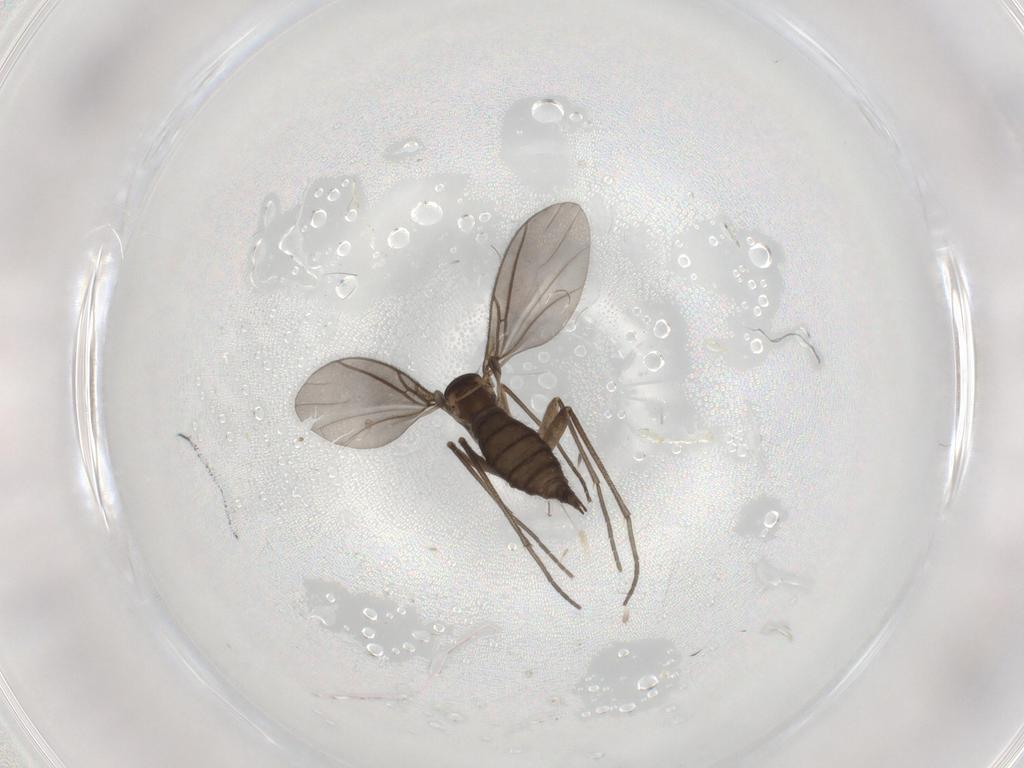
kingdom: Animalia
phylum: Arthropoda
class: Insecta
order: Diptera
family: Sciaridae
